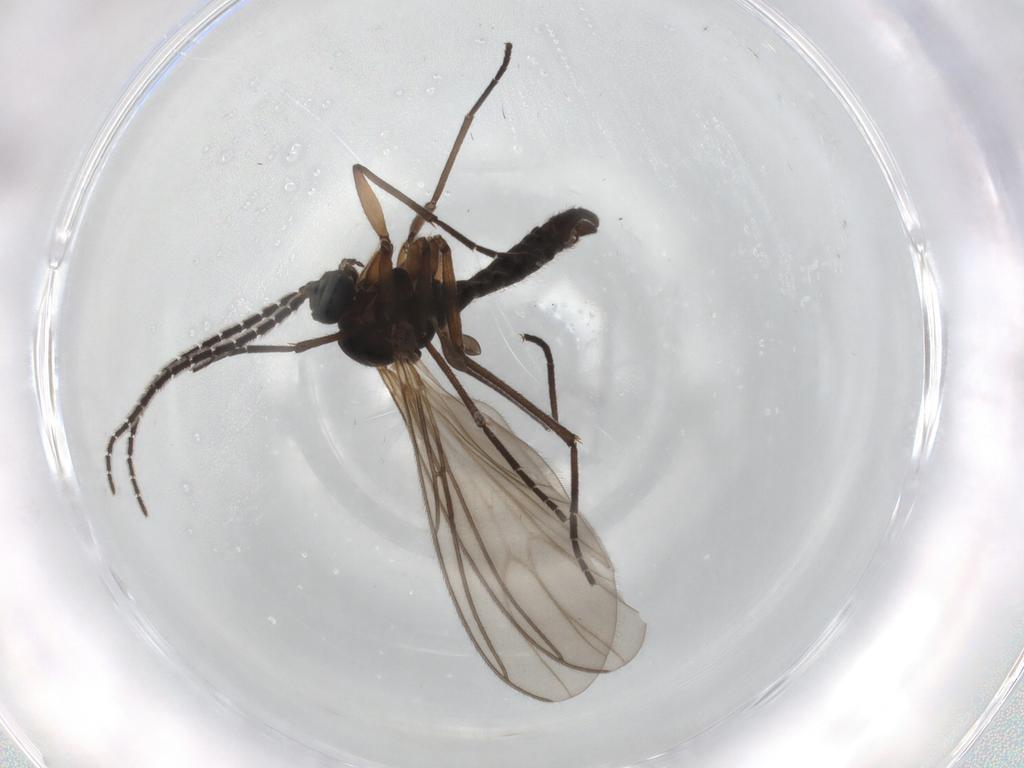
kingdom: Animalia
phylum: Arthropoda
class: Insecta
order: Diptera
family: Sciaridae
